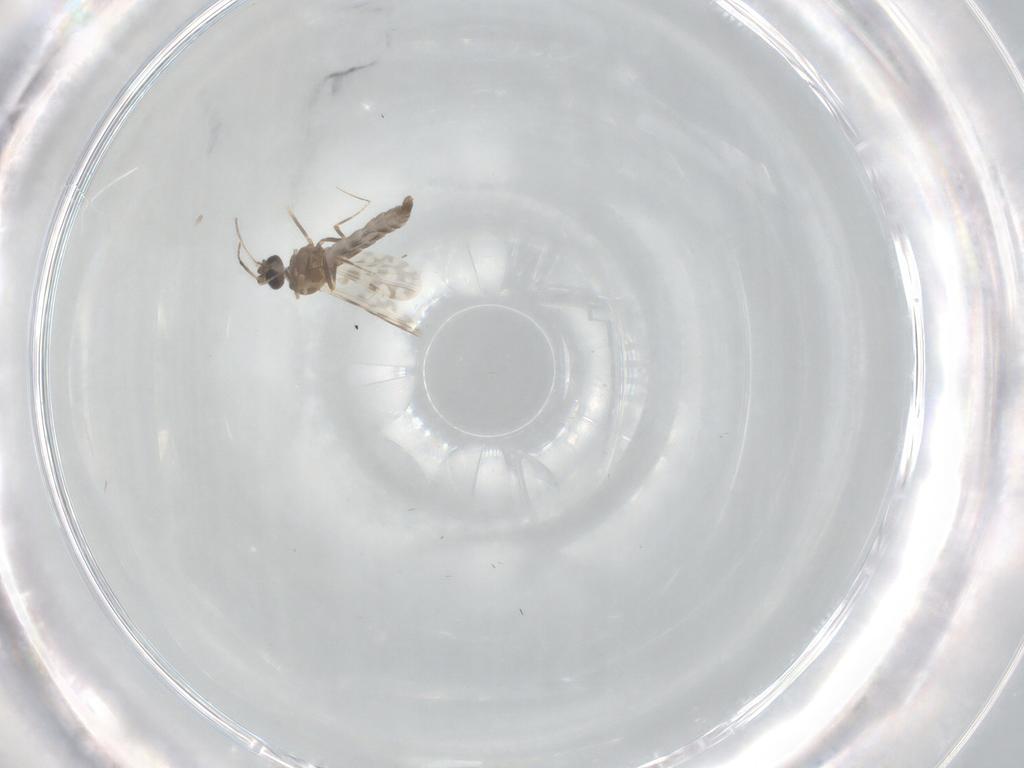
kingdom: Animalia
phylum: Arthropoda
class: Insecta
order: Diptera
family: Ceratopogonidae
